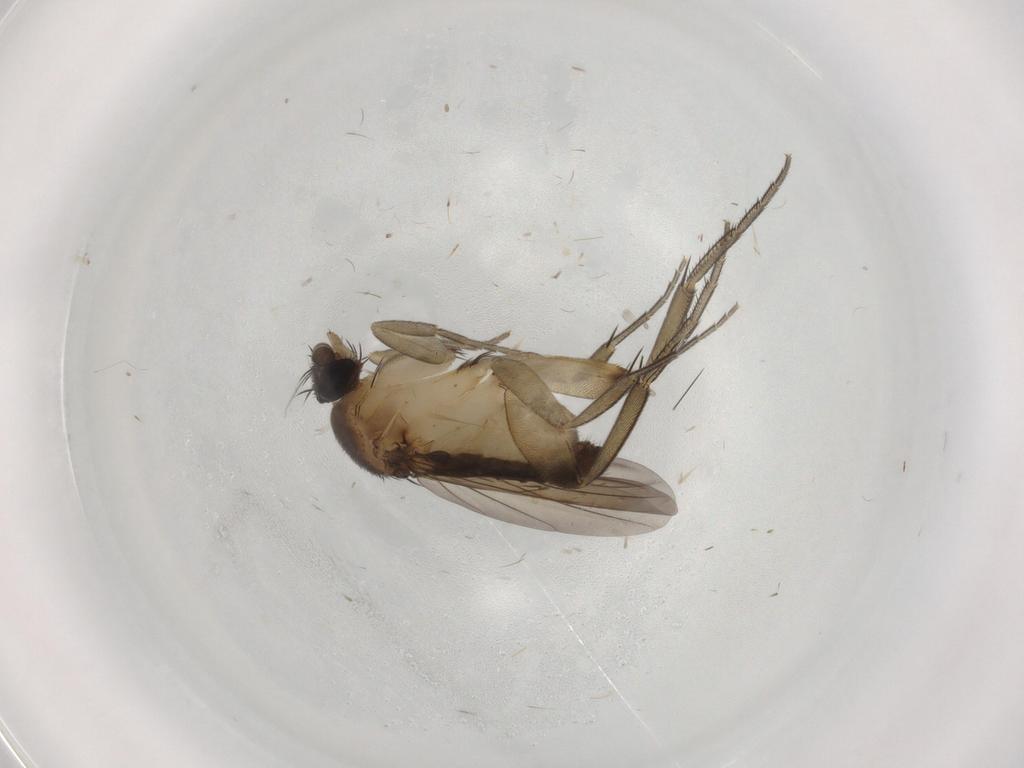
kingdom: Animalia
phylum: Arthropoda
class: Insecta
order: Diptera
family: Phoridae
